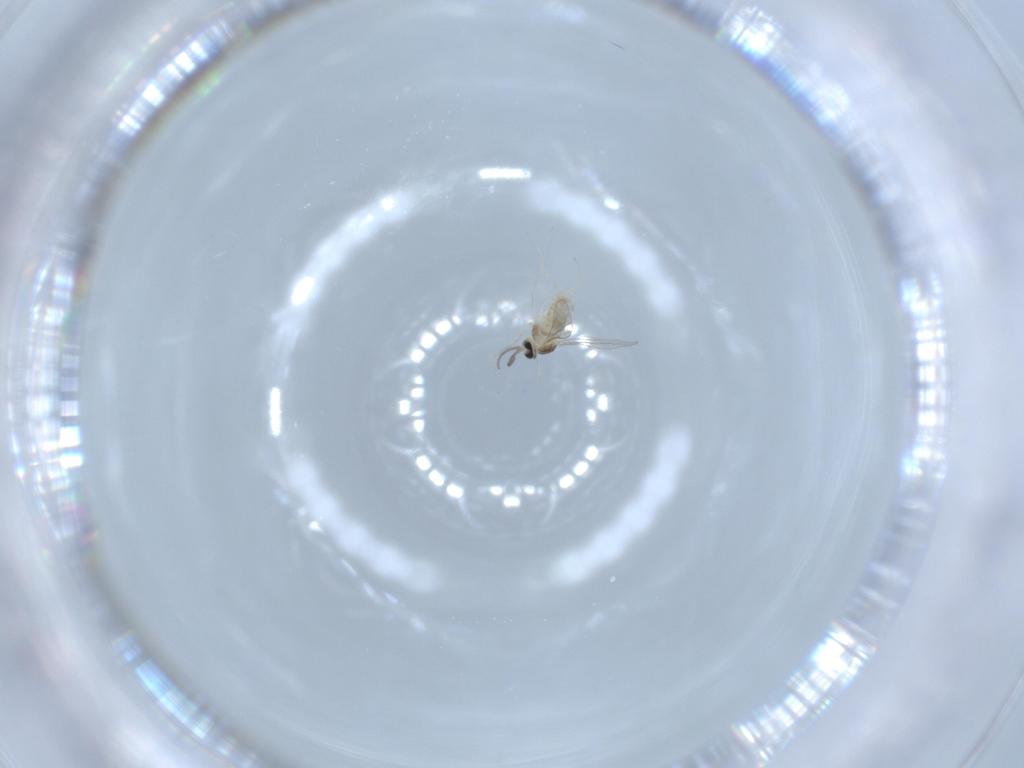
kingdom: Animalia
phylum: Arthropoda
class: Insecta
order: Diptera
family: Cecidomyiidae
